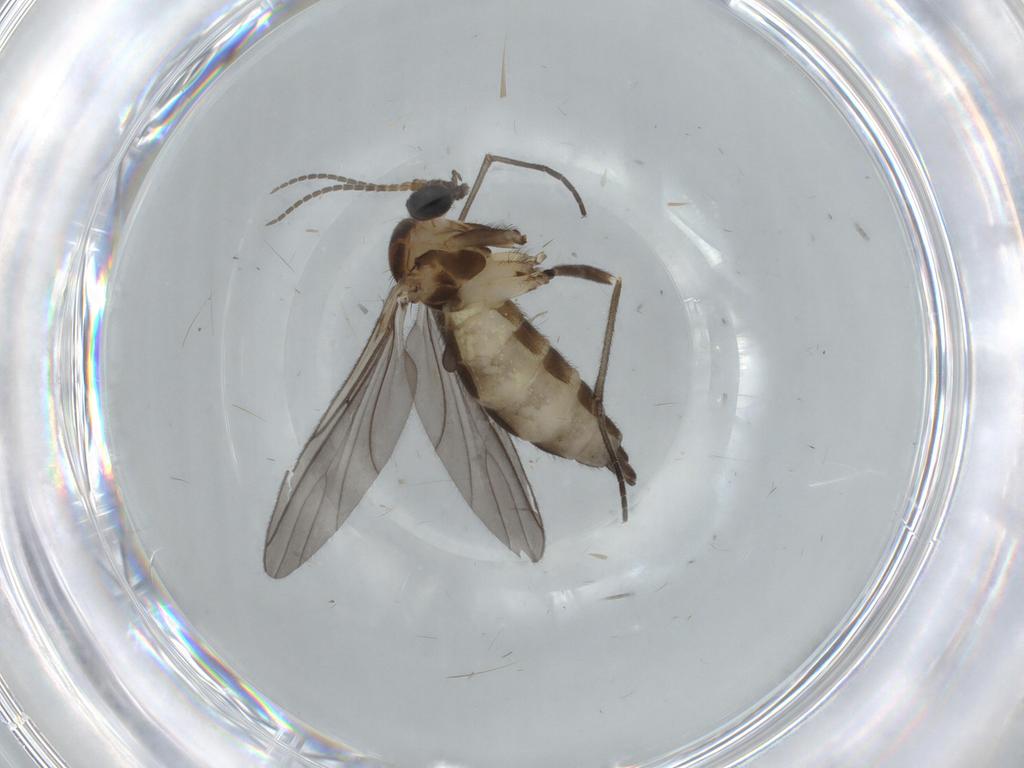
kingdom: Animalia
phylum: Arthropoda
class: Insecta
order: Diptera
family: Sciaridae
